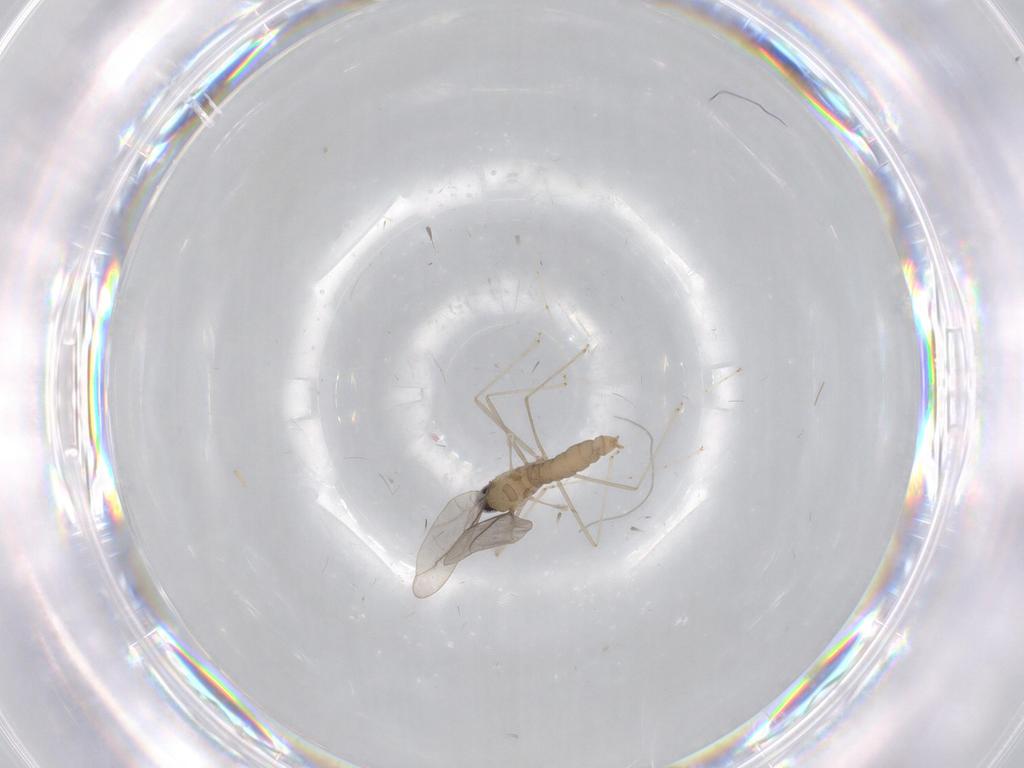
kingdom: Animalia
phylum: Arthropoda
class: Insecta
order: Diptera
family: Cecidomyiidae
